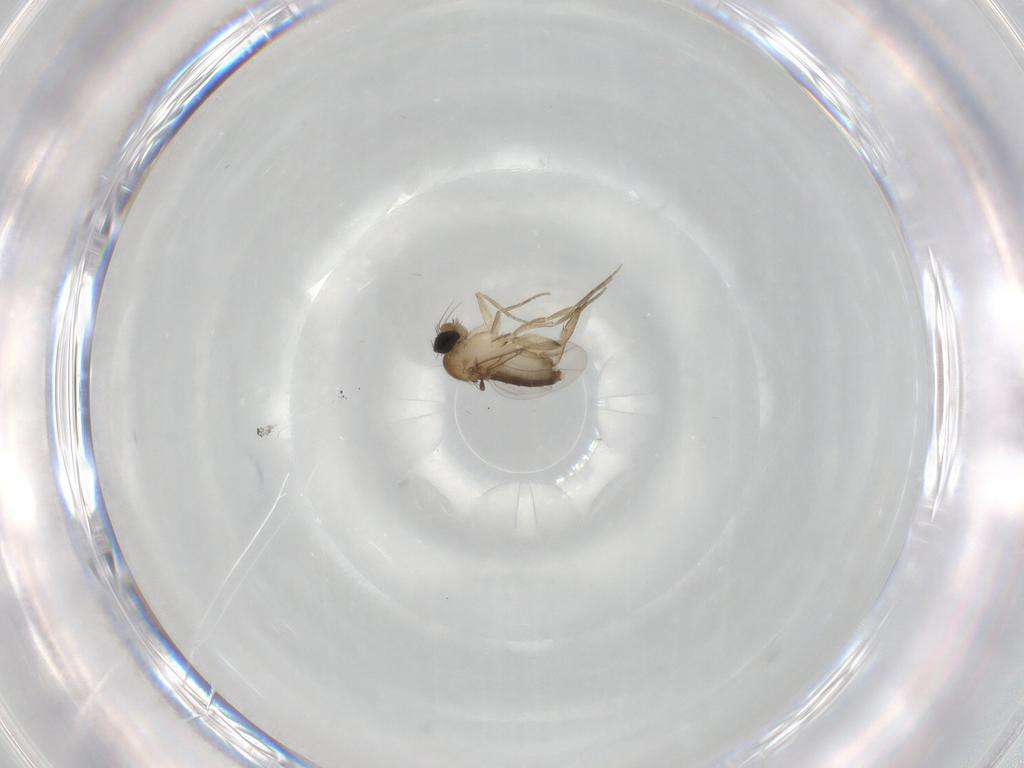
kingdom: Animalia
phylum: Arthropoda
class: Insecta
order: Diptera
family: Phoridae
